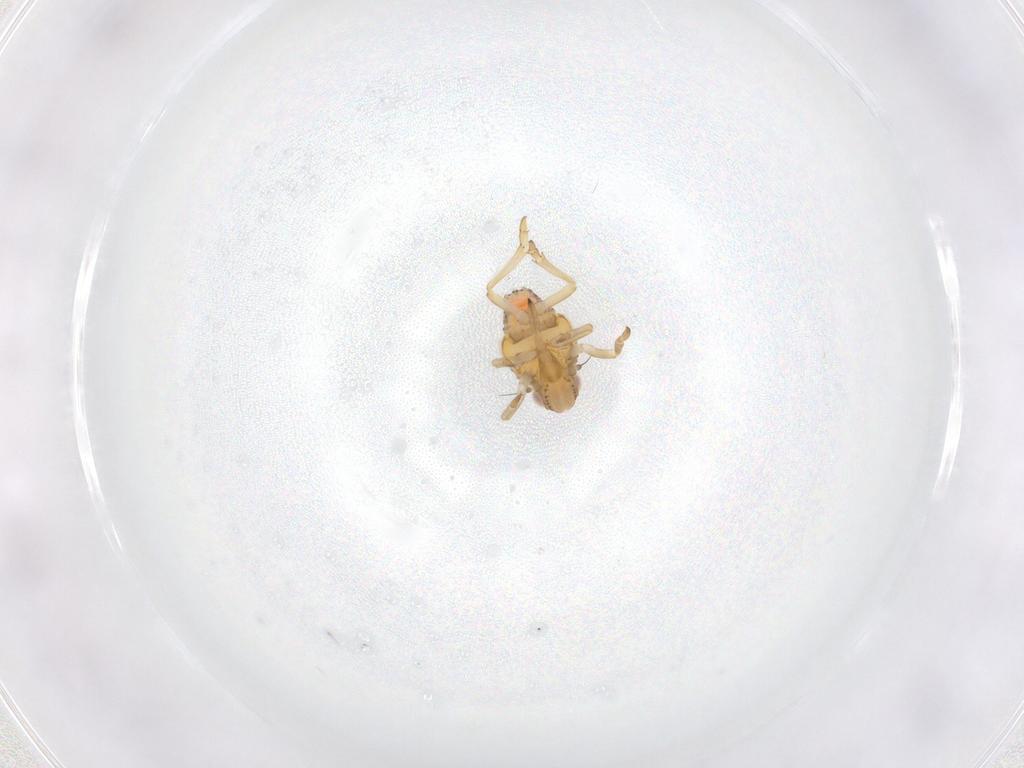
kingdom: Animalia
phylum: Arthropoda
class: Insecta
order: Hemiptera
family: Tropiduchidae
